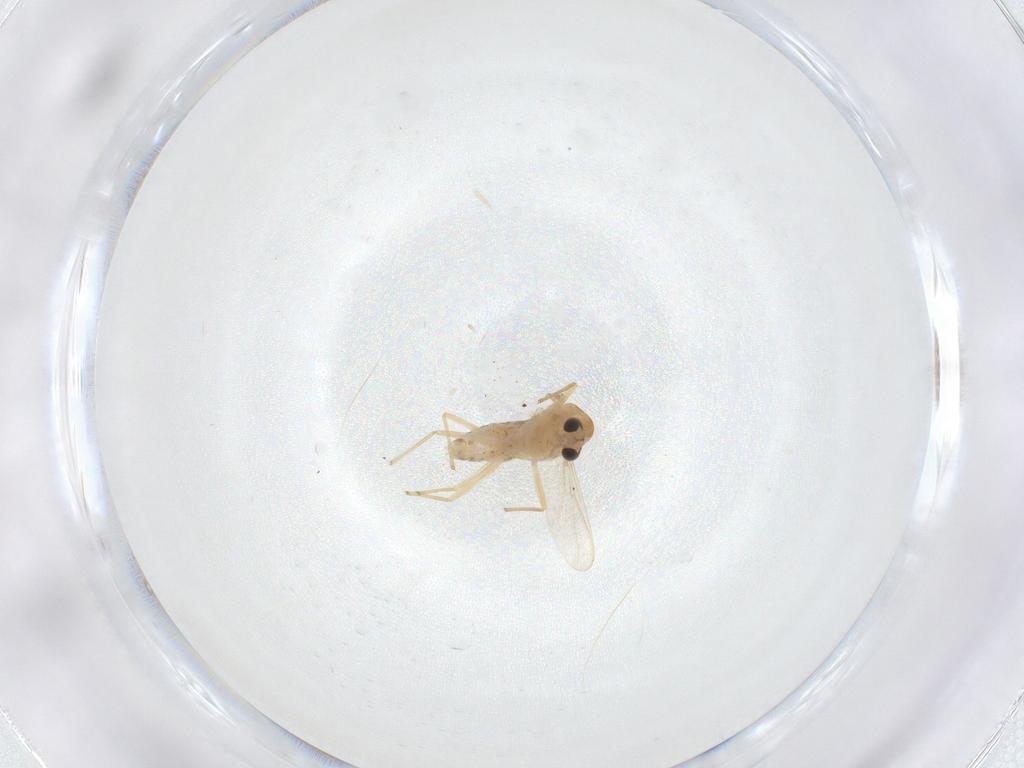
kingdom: Animalia
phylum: Arthropoda
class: Insecta
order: Diptera
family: Chironomidae
